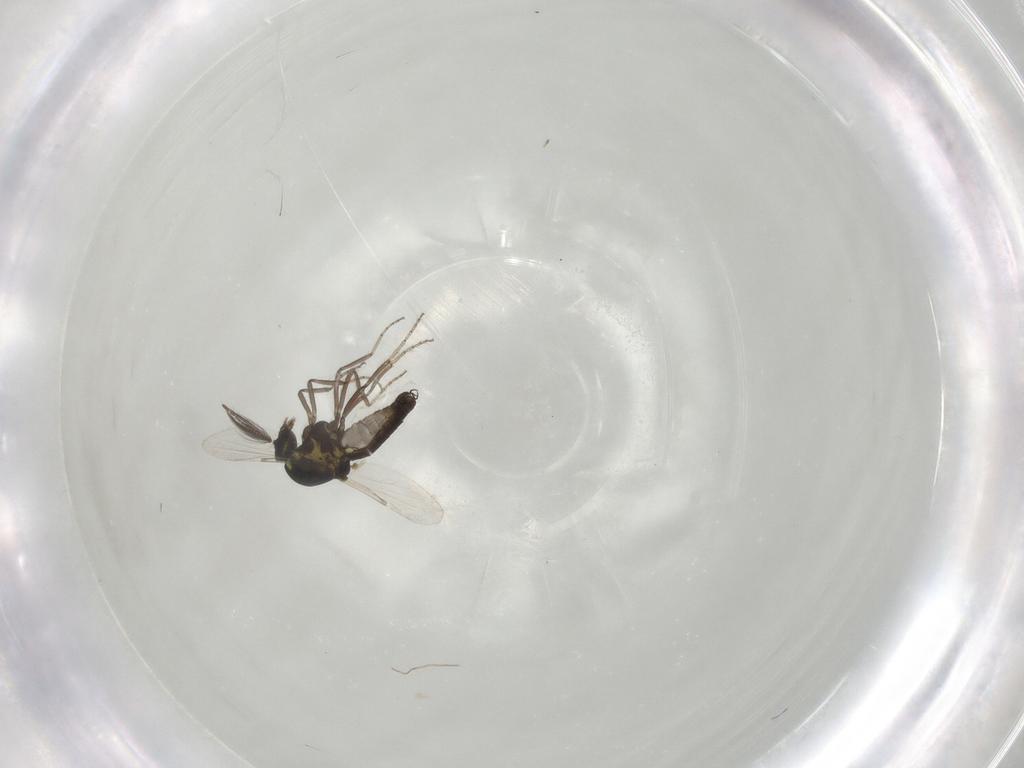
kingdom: Animalia
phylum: Arthropoda
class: Insecta
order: Diptera
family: Ceratopogonidae
